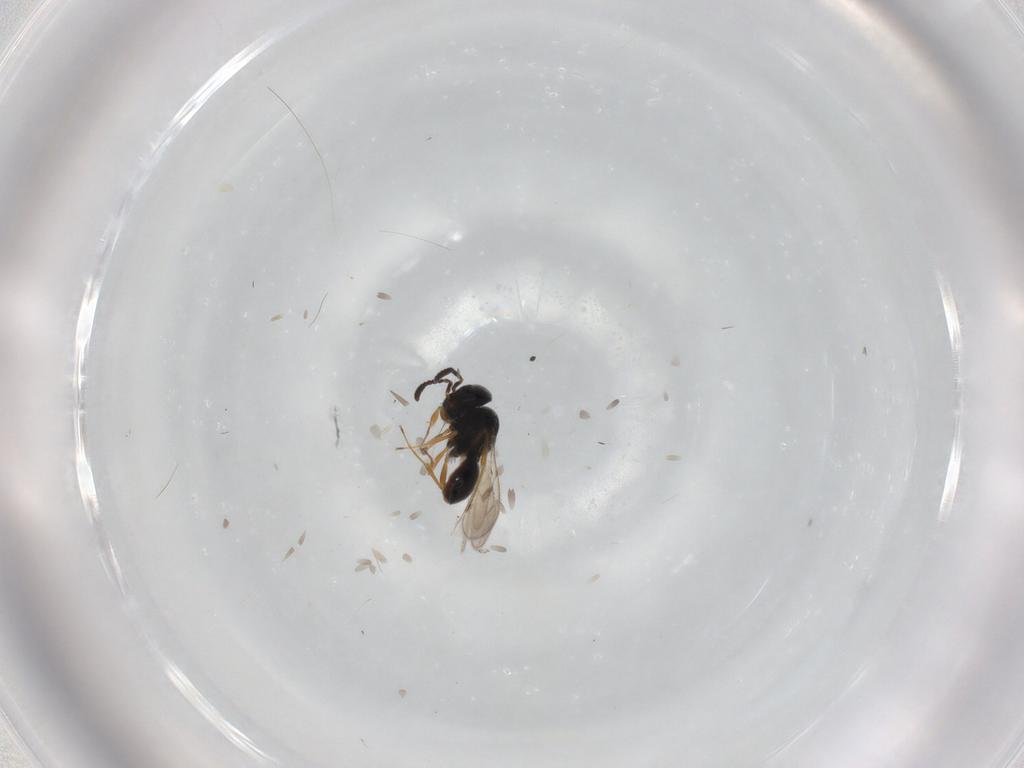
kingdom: Animalia
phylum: Arthropoda
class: Insecta
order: Hymenoptera
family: Scelionidae
